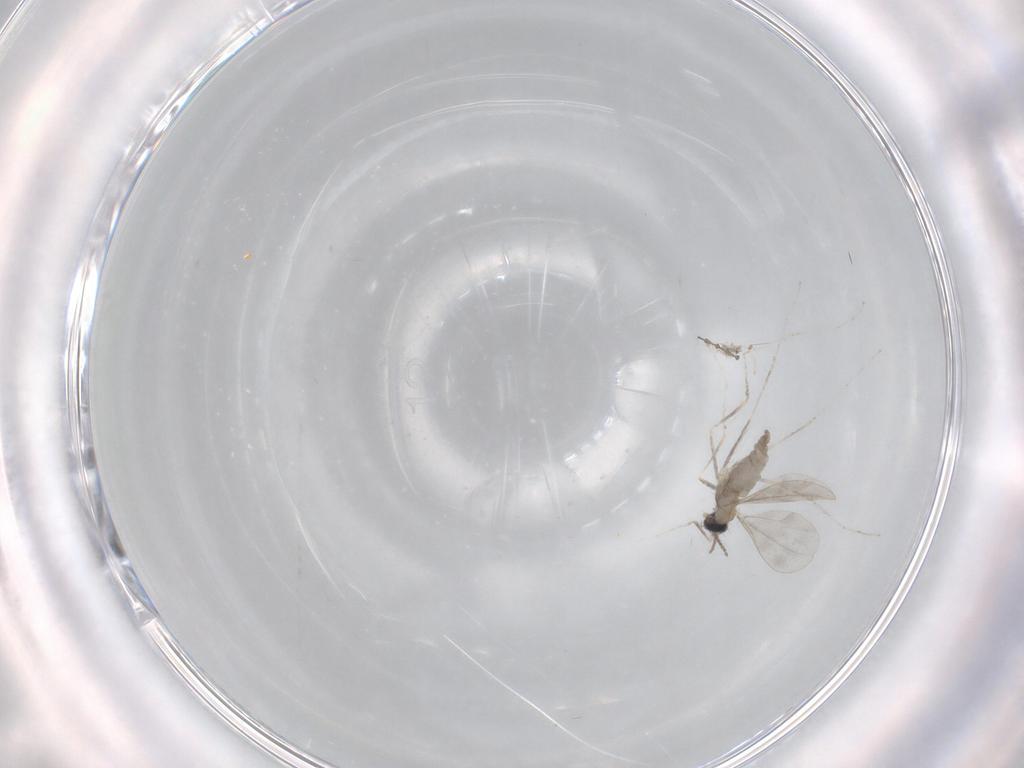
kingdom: Animalia
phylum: Arthropoda
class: Insecta
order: Diptera
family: Cecidomyiidae
